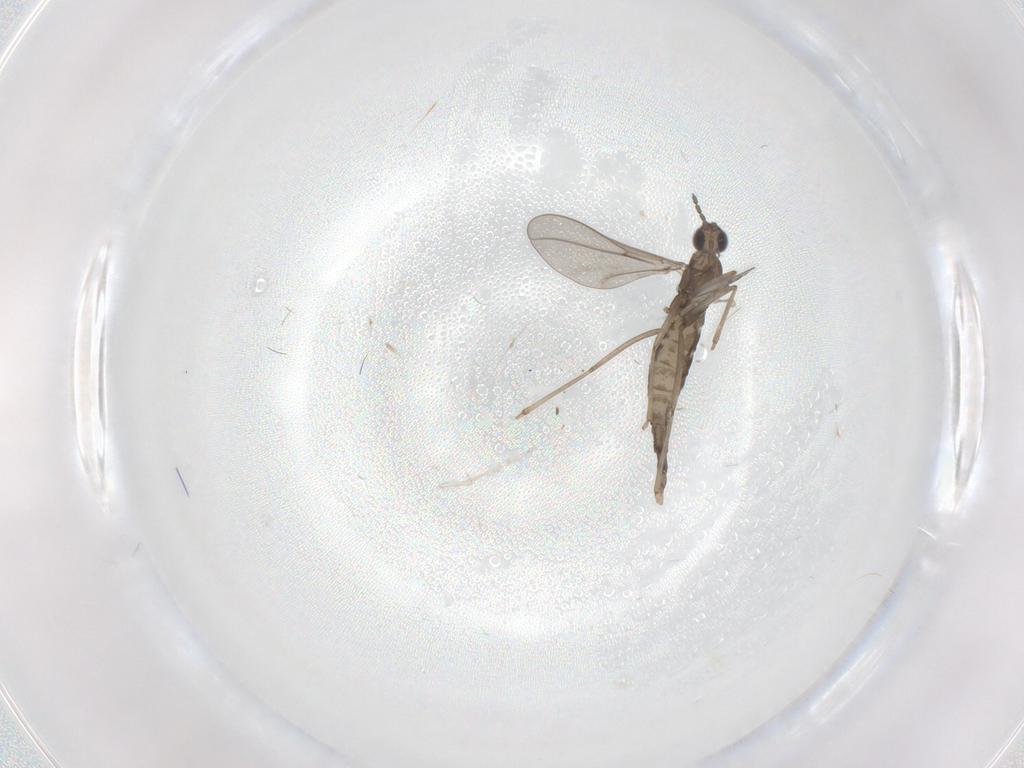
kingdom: Animalia
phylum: Arthropoda
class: Insecta
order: Diptera
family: Cecidomyiidae
